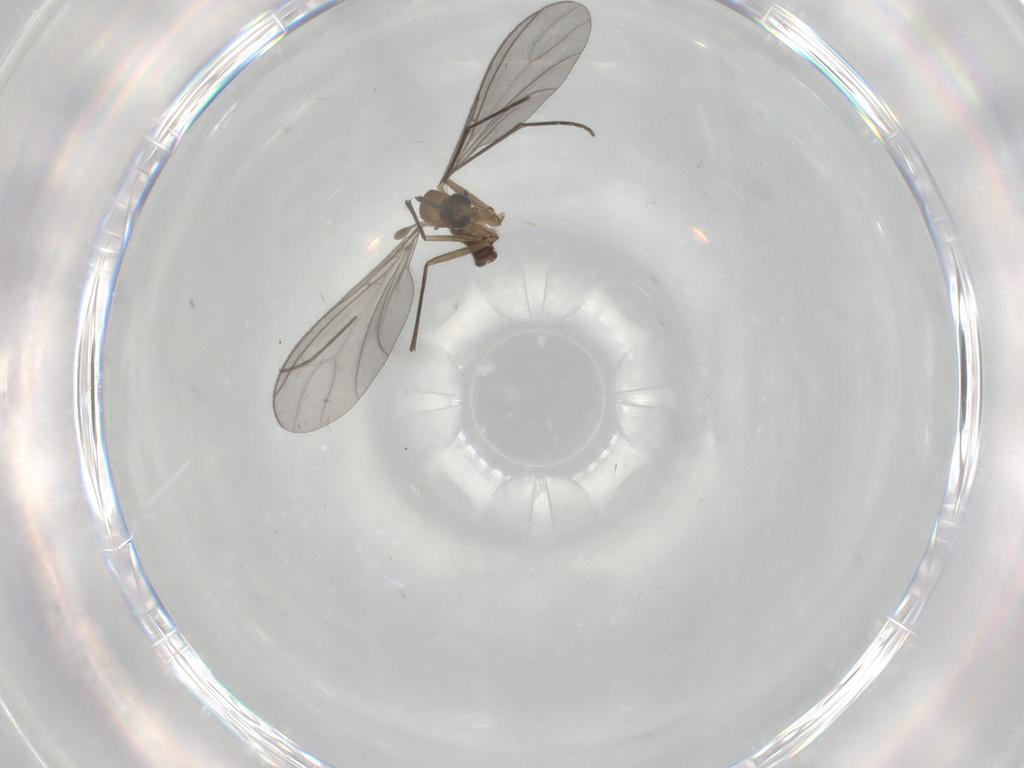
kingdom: Animalia
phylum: Arthropoda
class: Insecta
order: Diptera
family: Sciaridae
